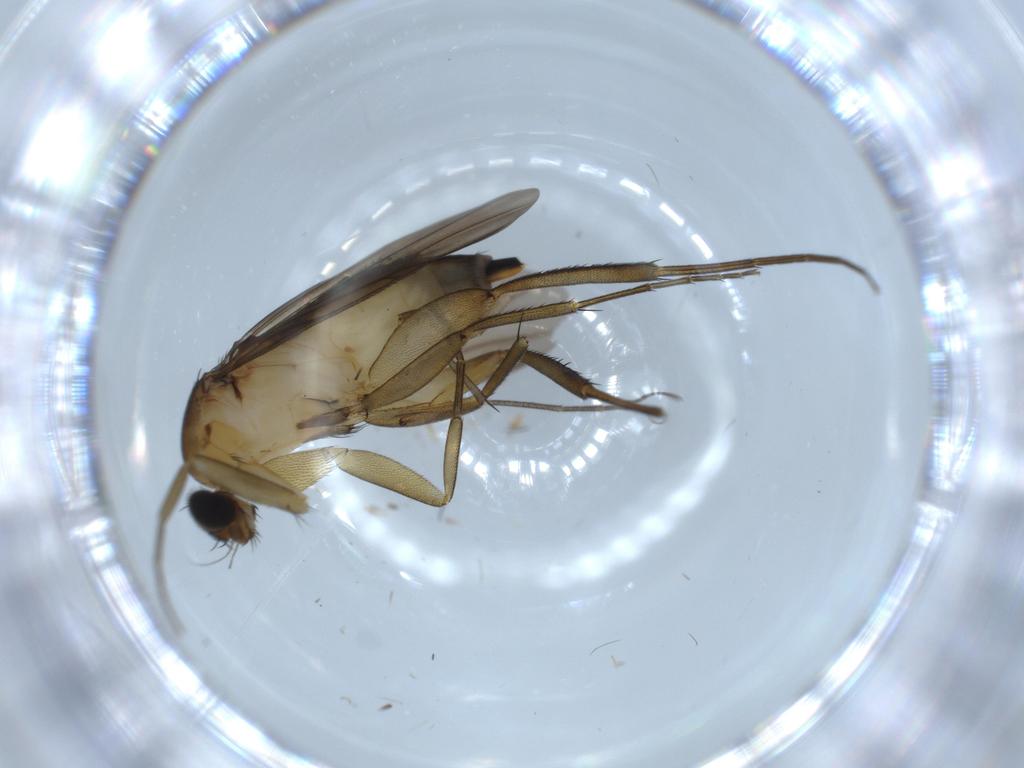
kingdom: Animalia
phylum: Arthropoda
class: Insecta
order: Diptera
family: Phoridae
